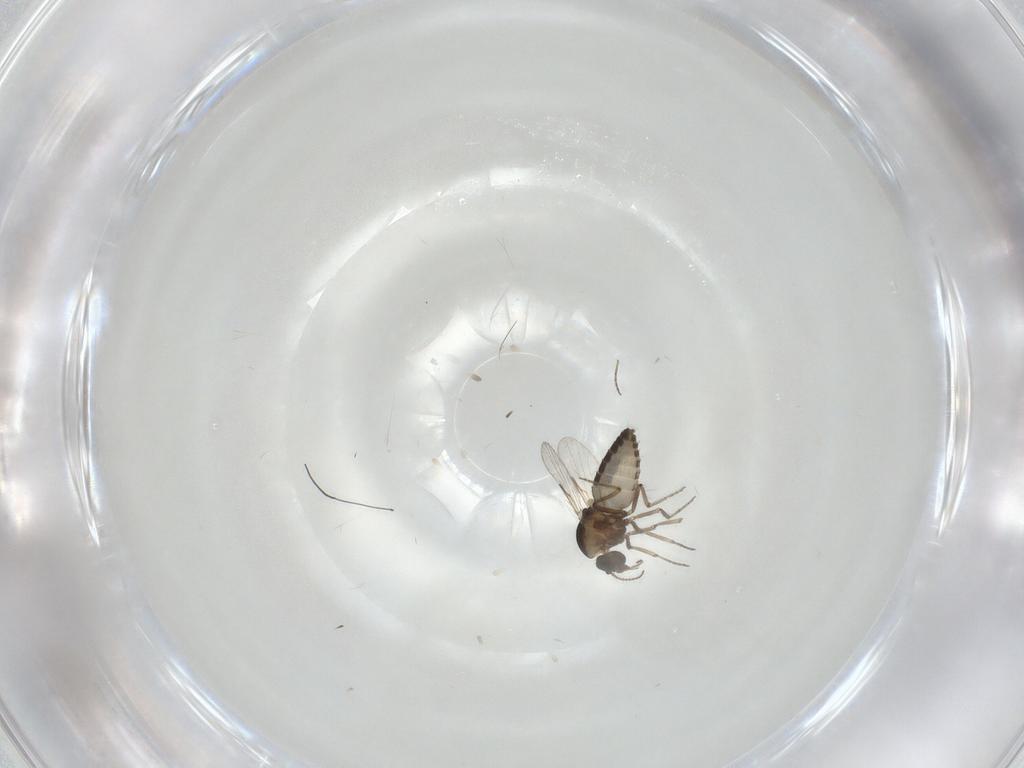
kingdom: Animalia
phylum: Arthropoda
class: Insecta
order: Diptera
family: Ceratopogonidae
